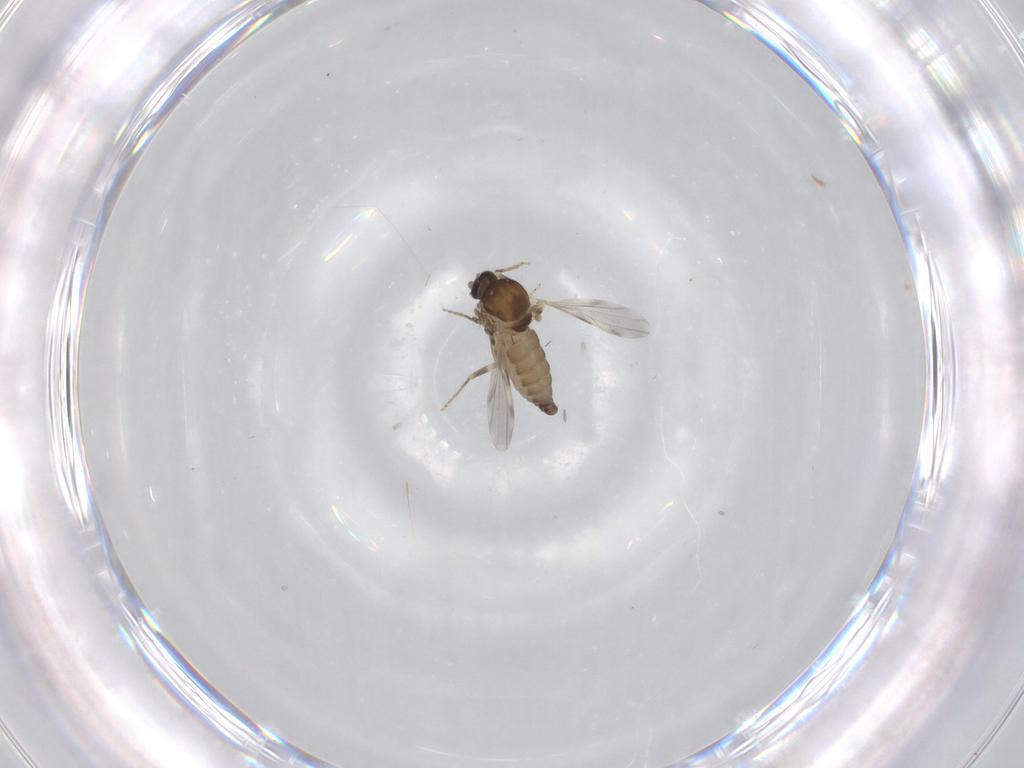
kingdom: Animalia
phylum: Arthropoda
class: Insecta
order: Diptera
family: Ceratopogonidae
